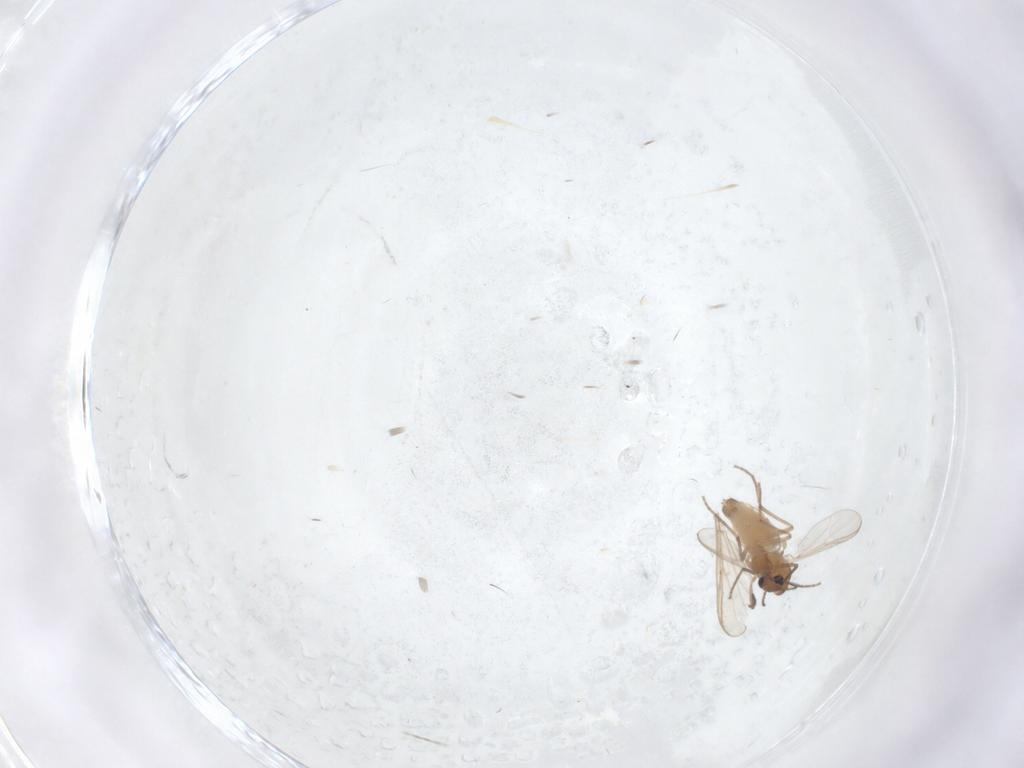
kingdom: Animalia
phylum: Arthropoda
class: Insecta
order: Diptera
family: Chironomidae
